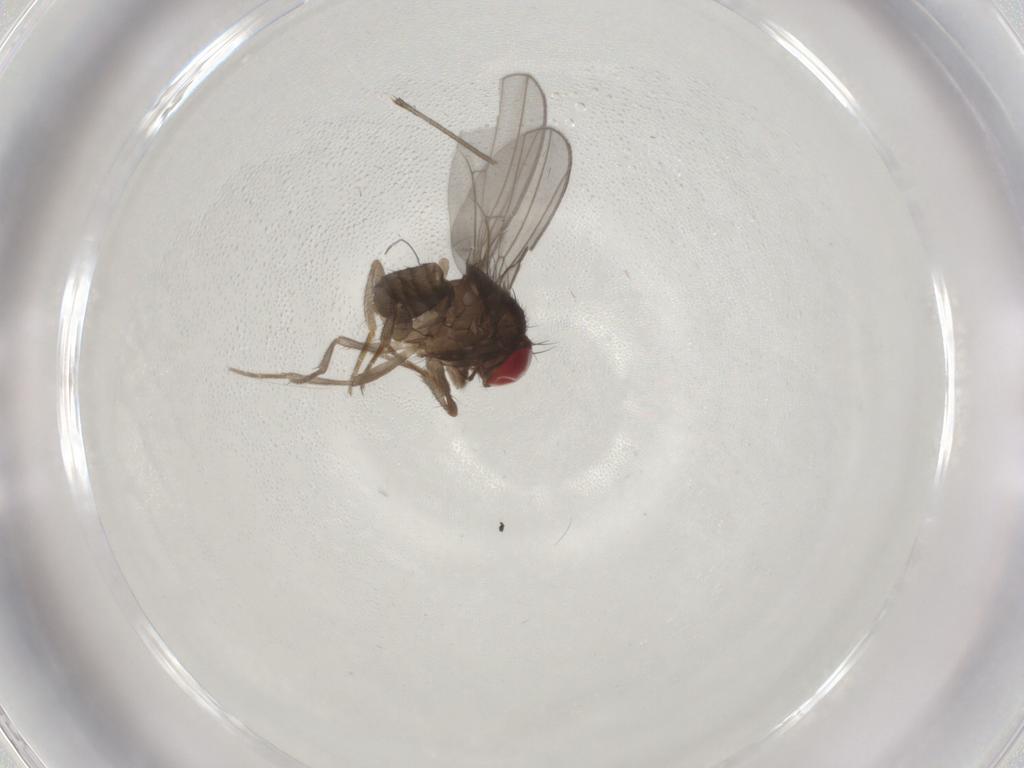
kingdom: Animalia
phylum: Arthropoda
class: Insecta
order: Diptera
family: Drosophilidae
